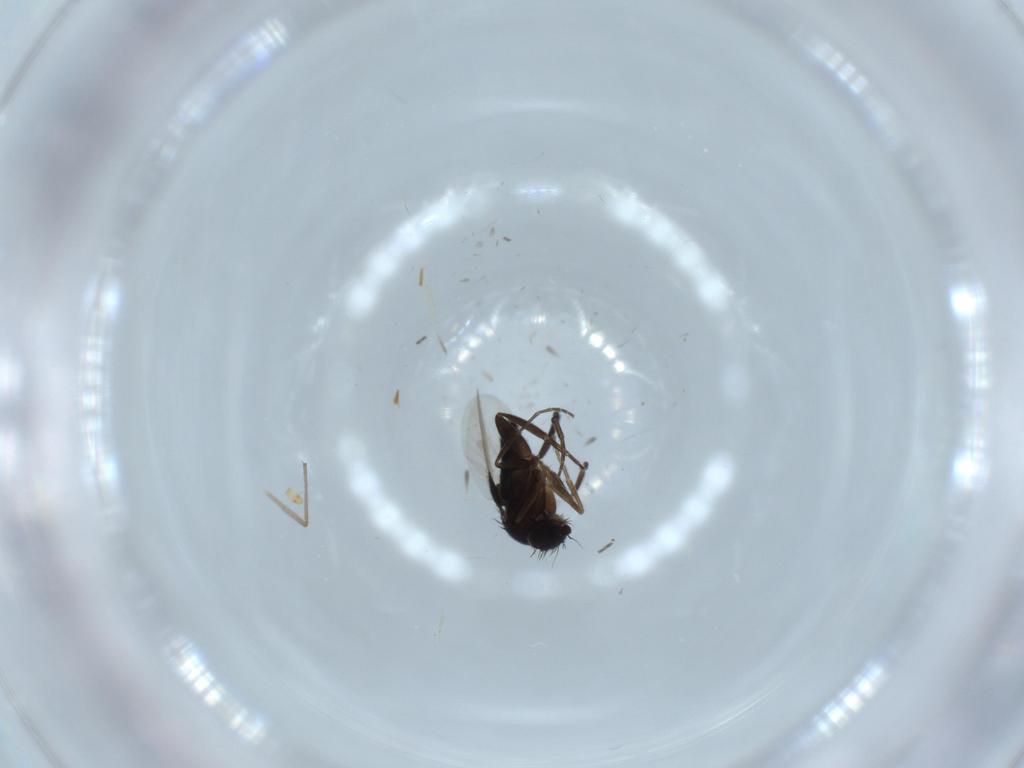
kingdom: Animalia
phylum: Arthropoda
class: Insecta
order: Diptera
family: Phoridae
